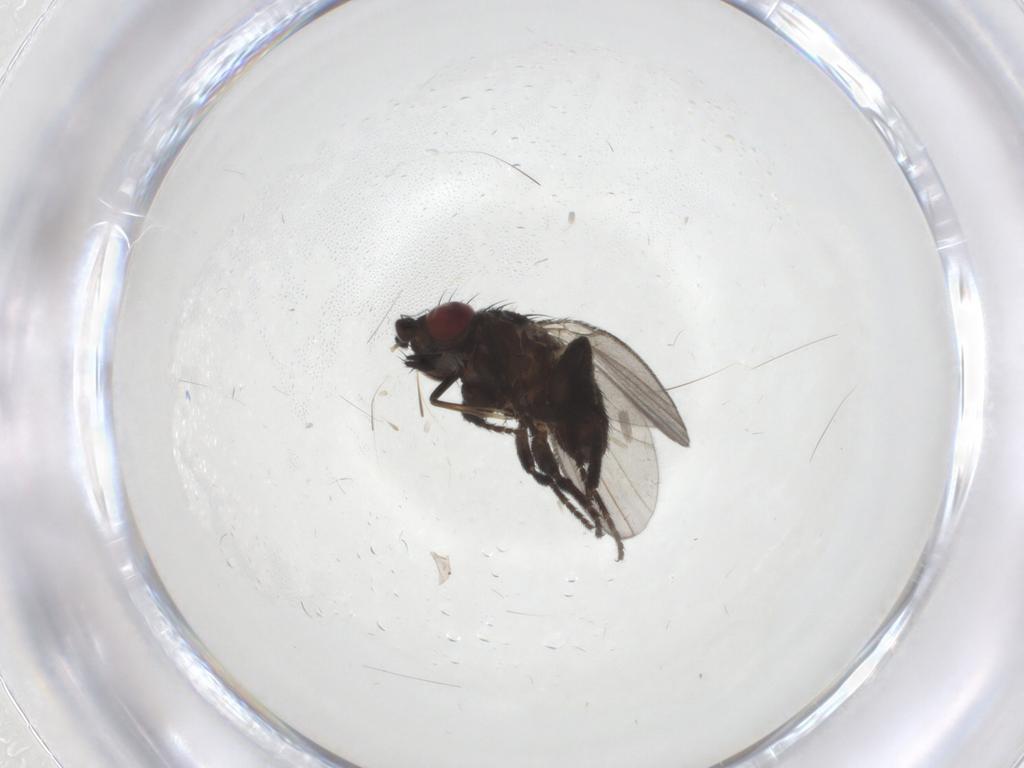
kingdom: Animalia
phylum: Arthropoda
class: Insecta
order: Diptera
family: Milichiidae
